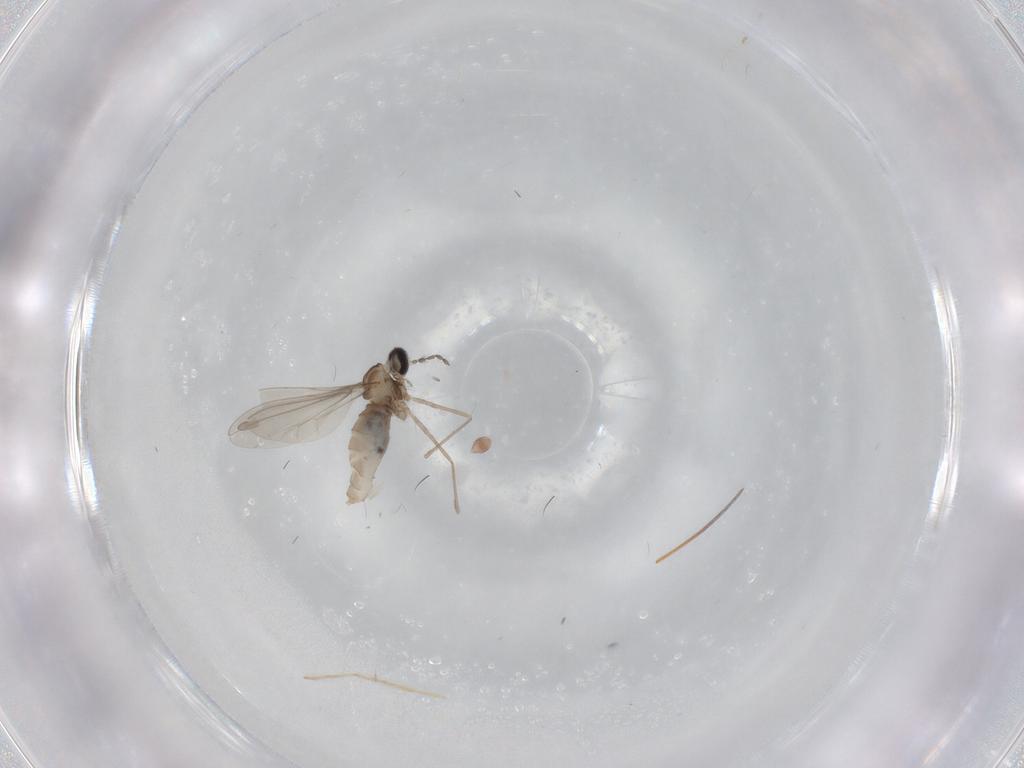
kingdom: Animalia
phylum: Arthropoda
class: Insecta
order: Diptera
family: Chironomidae
